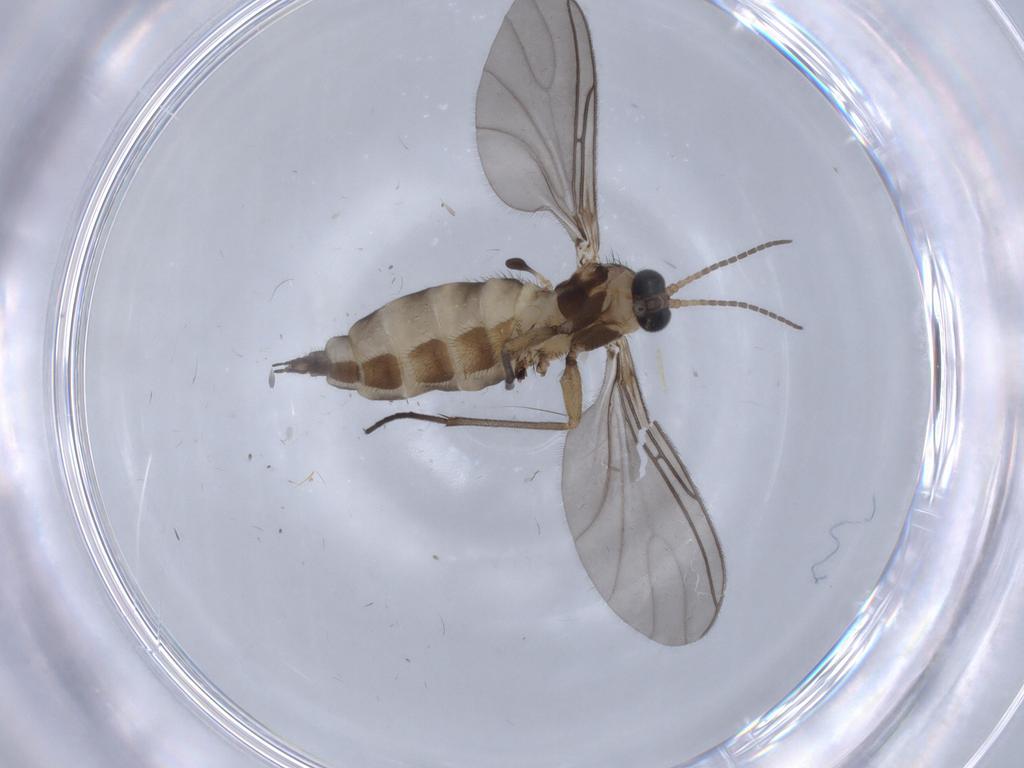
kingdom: Animalia
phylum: Arthropoda
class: Insecta
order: Diptera
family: Sciaridae
